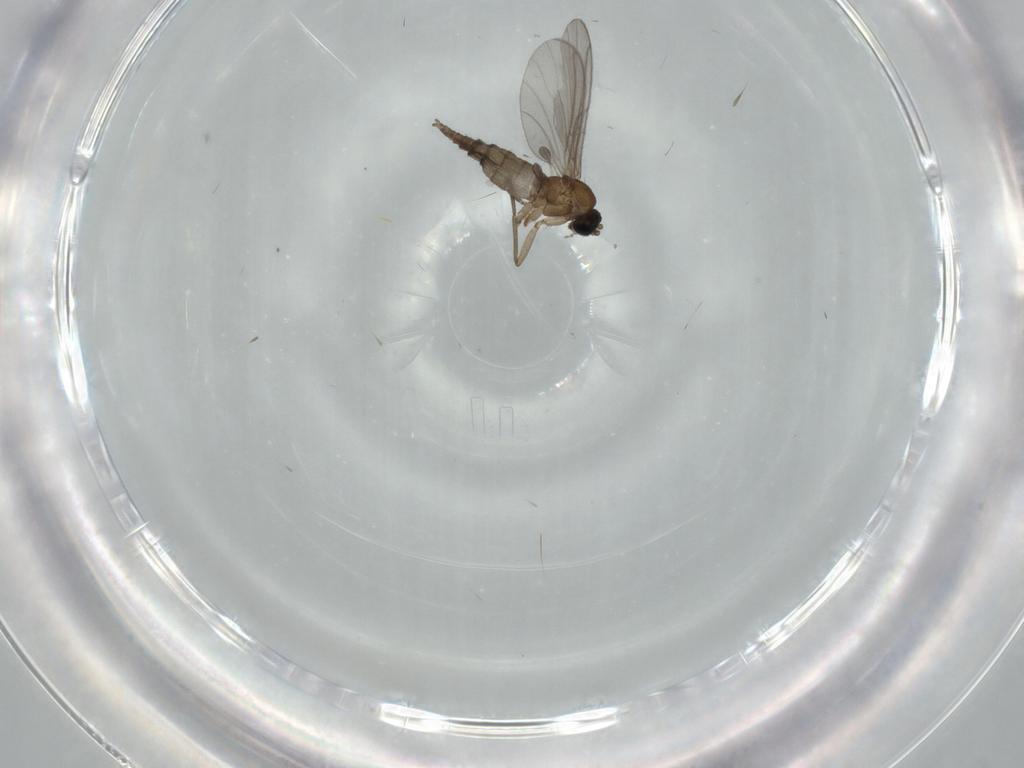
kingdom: Animalia
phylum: Arthropoda
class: Insecta
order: Diptera
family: Sciaridae
